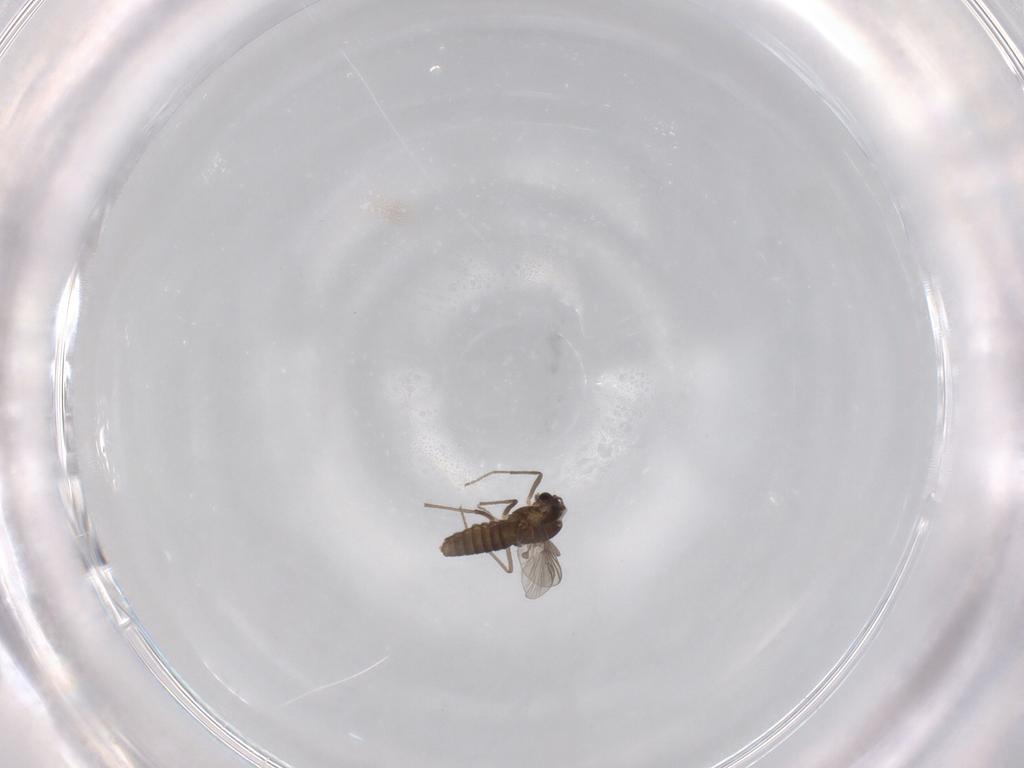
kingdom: Animalia
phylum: Arthropoda
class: Insecta
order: Diptera
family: Chironomidae
